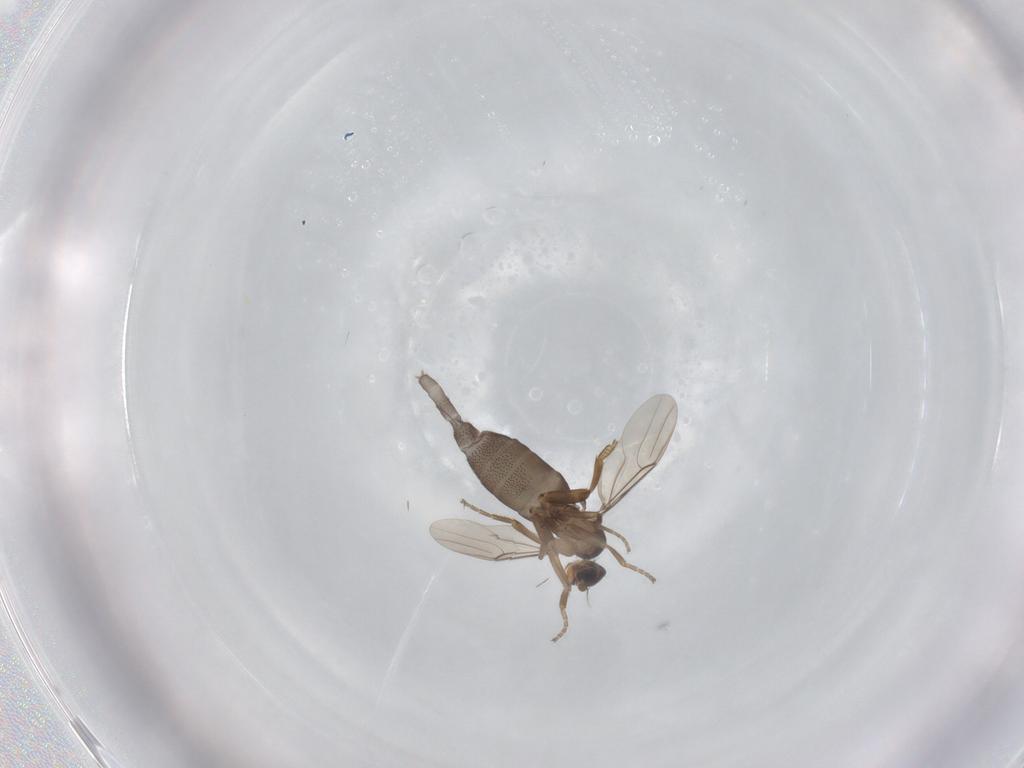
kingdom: Animalia
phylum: Arthropoda
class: Insecta
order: Diptera
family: Phoridae
